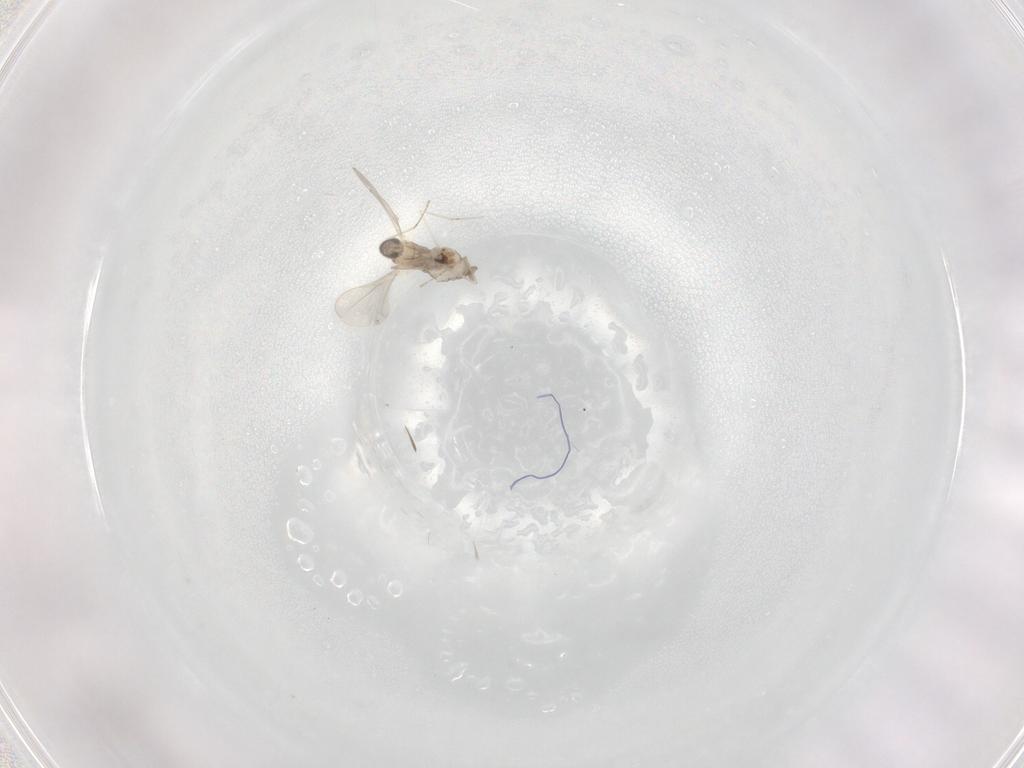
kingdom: Animalia
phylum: Arthropoda
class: Insecta
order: Diptera
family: Cecidomyiidae
